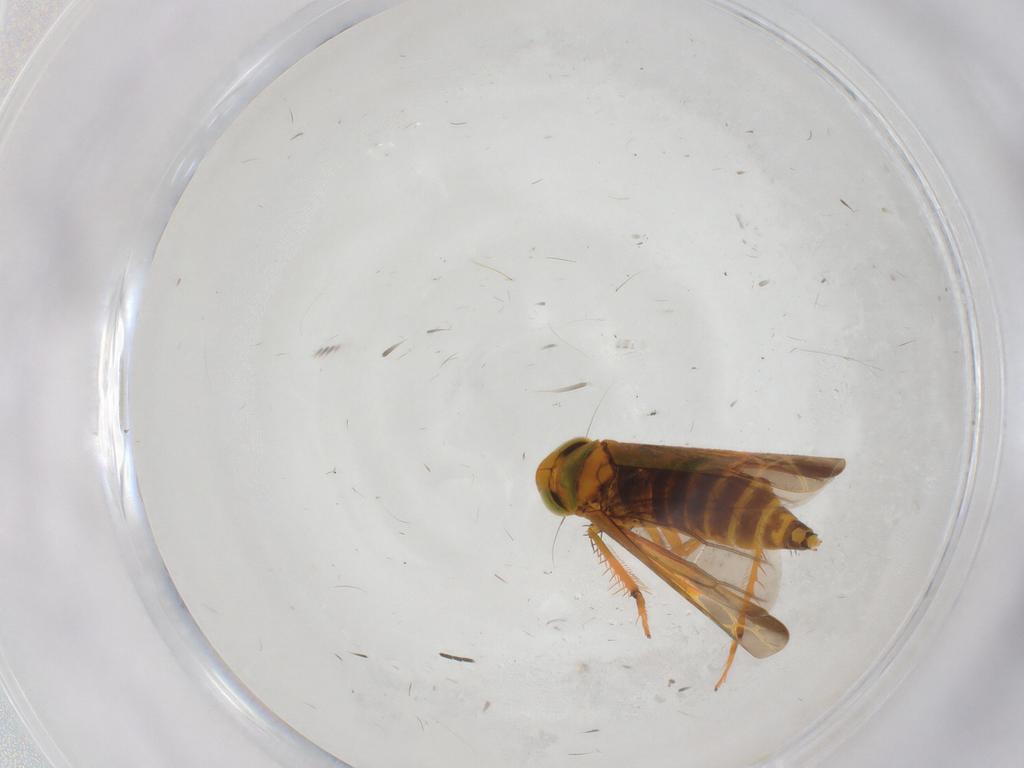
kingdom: Animalia
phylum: Arthropoda
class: Insecta
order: Hemiptera
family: Cicadellidae
